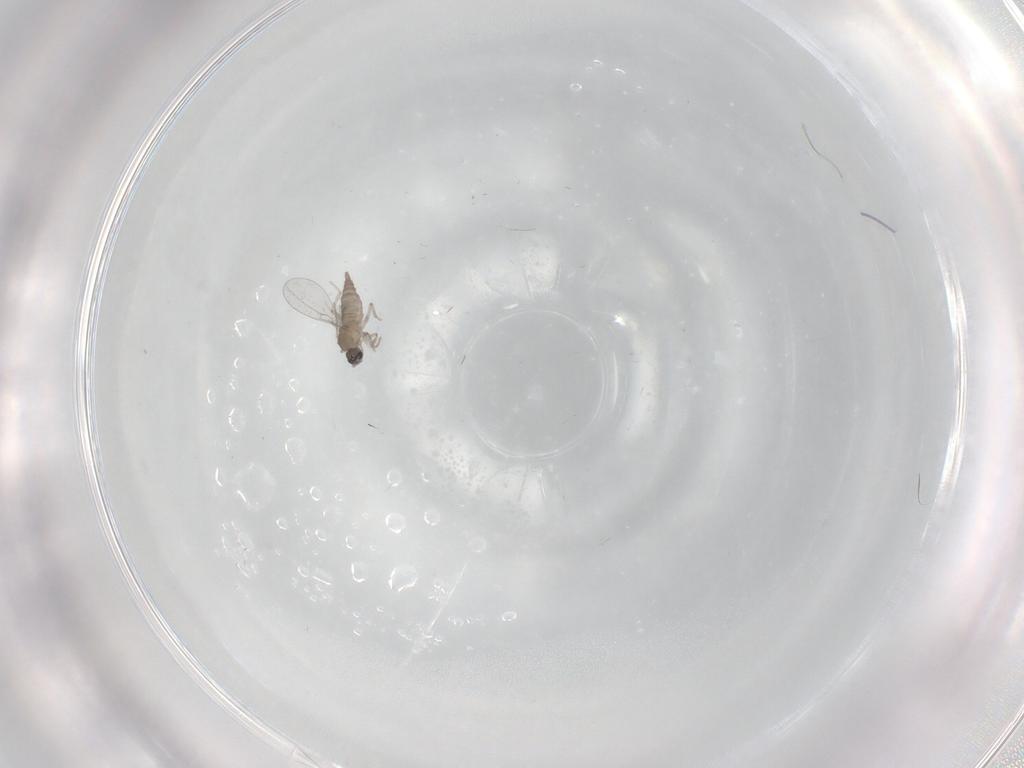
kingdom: Animalia
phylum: Arthropoda
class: Insecta
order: Diptera
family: Cecidomyiidae
